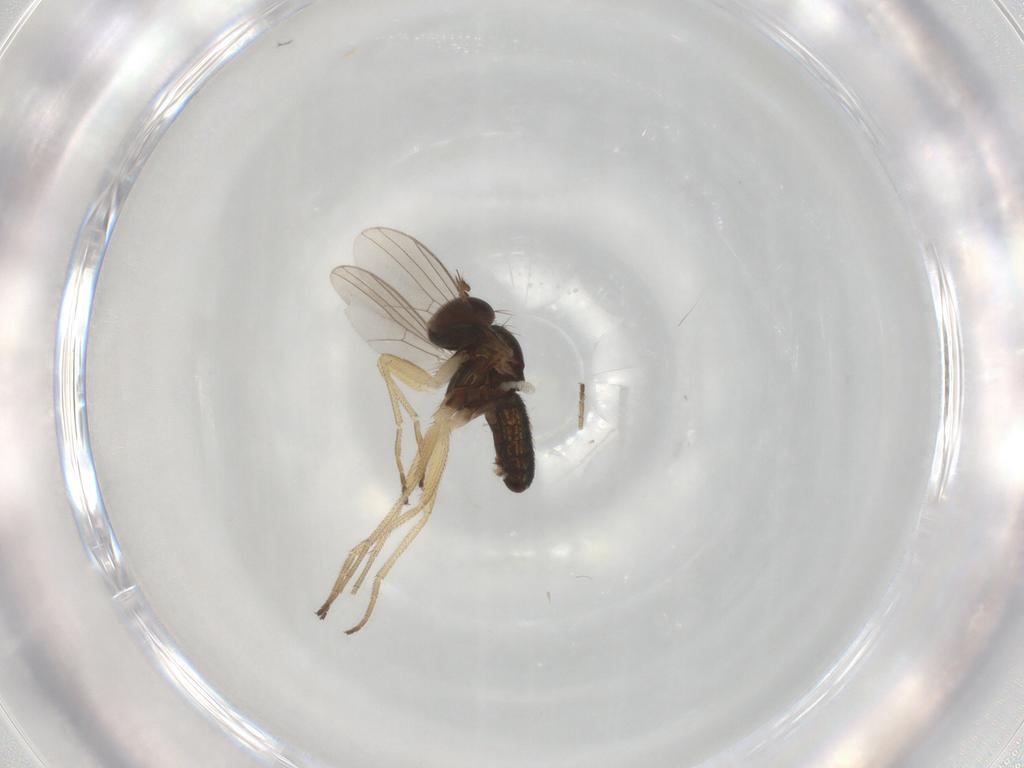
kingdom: Animalia
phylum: Arthropoda
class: Insecta
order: Diptera
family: Dolichopodidae
